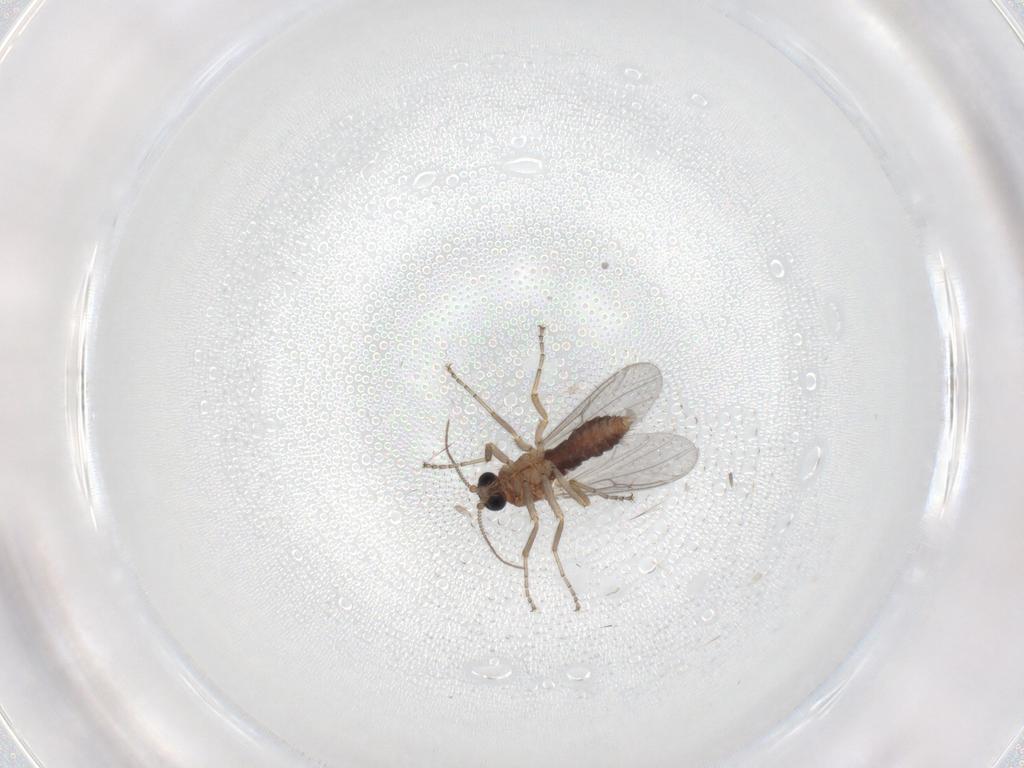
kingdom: Animalia
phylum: Arthropoda
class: Insecta
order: Diptera
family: Ceratopogonidae
